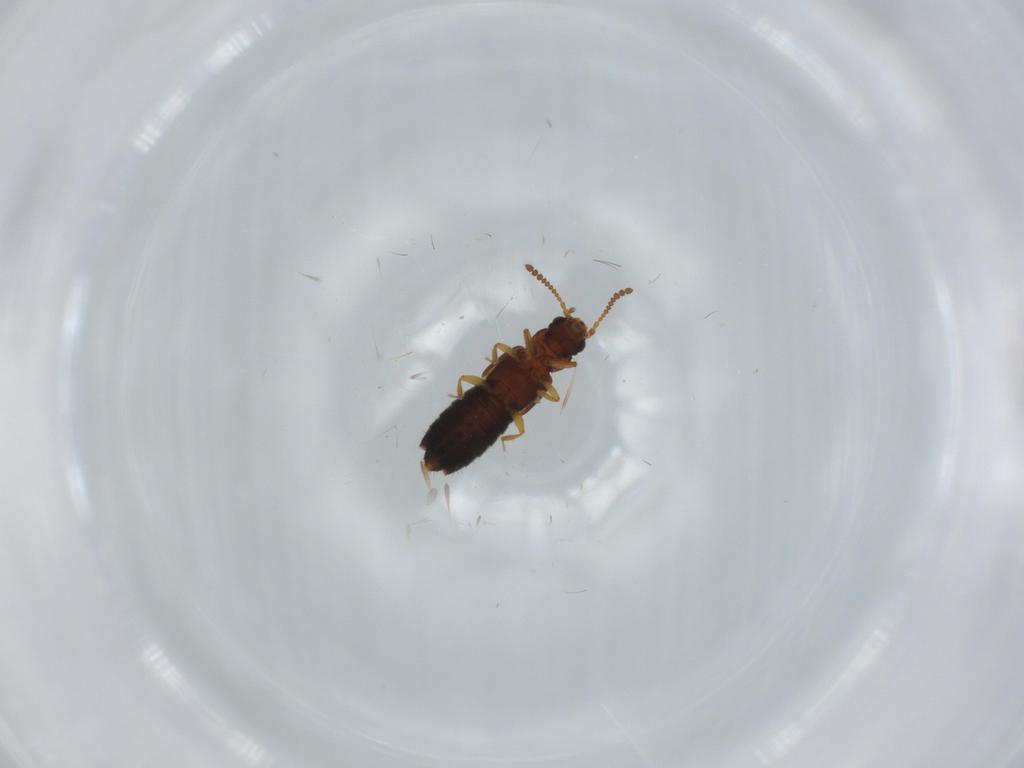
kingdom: Animalia
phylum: Arthropoda
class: Insecta
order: Coleoptera
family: Staphylinidae
